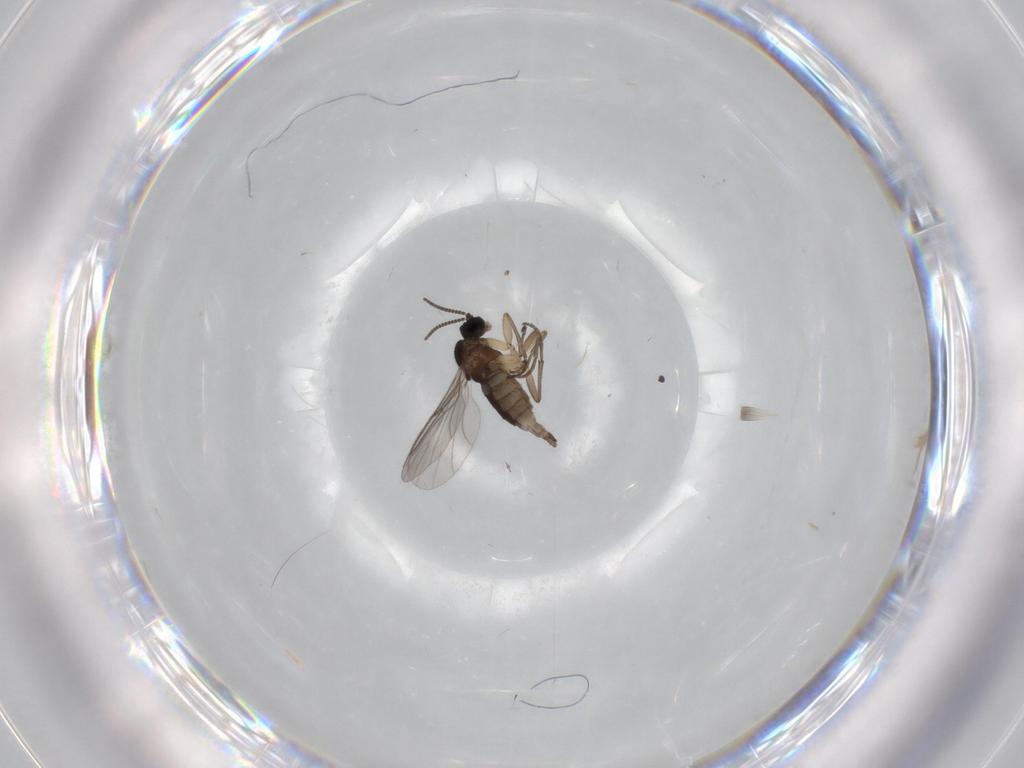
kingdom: Animalia
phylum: Arthropoda
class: Insecta
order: Diptera
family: Sciaridae
